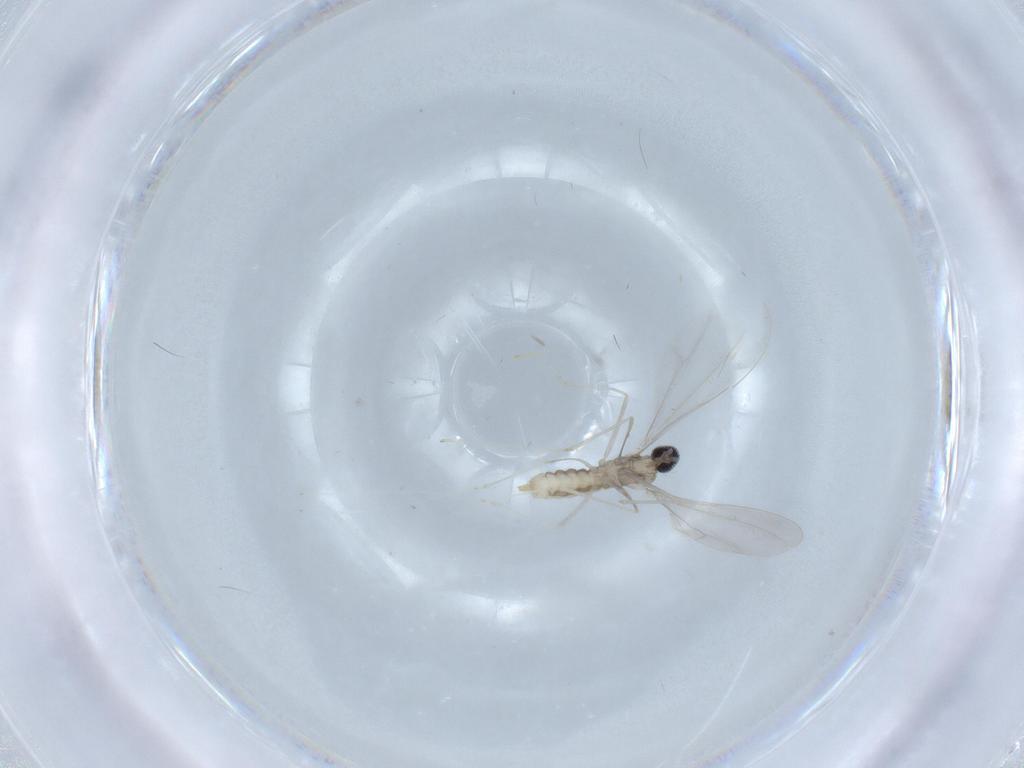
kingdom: Animalia
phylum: Arthropoda
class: Insecta
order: Diptera
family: Cecidomyiidae
